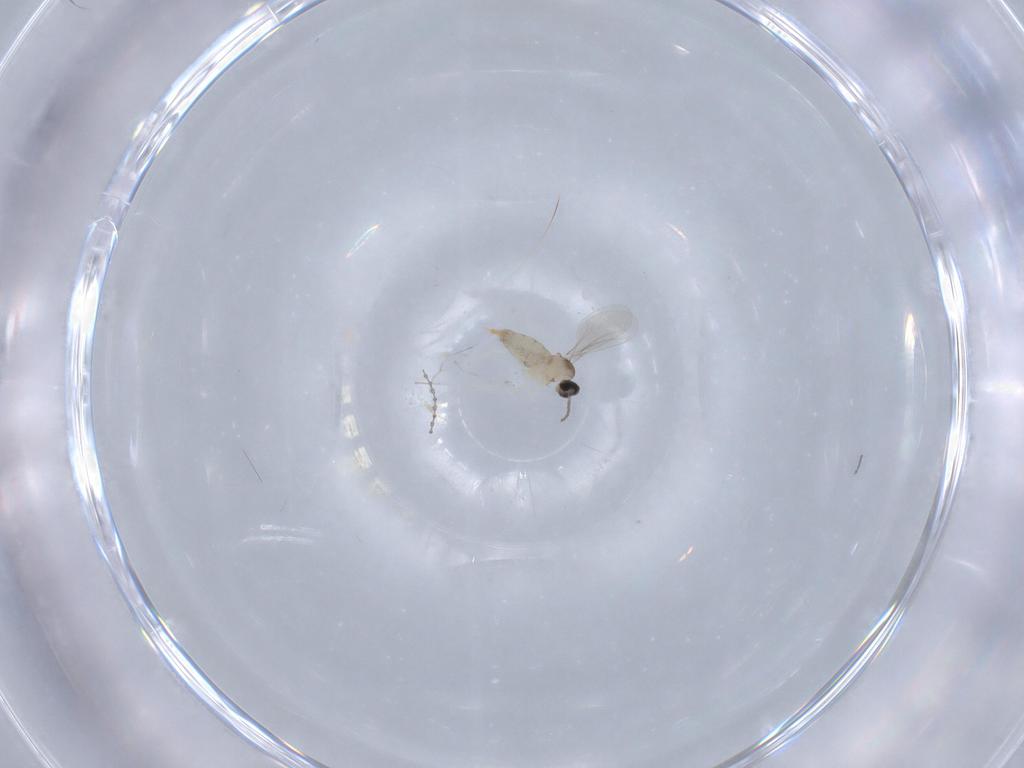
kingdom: Animalia
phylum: Arthropoda
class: Insecta
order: Diptera
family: Cecidomyiidae
